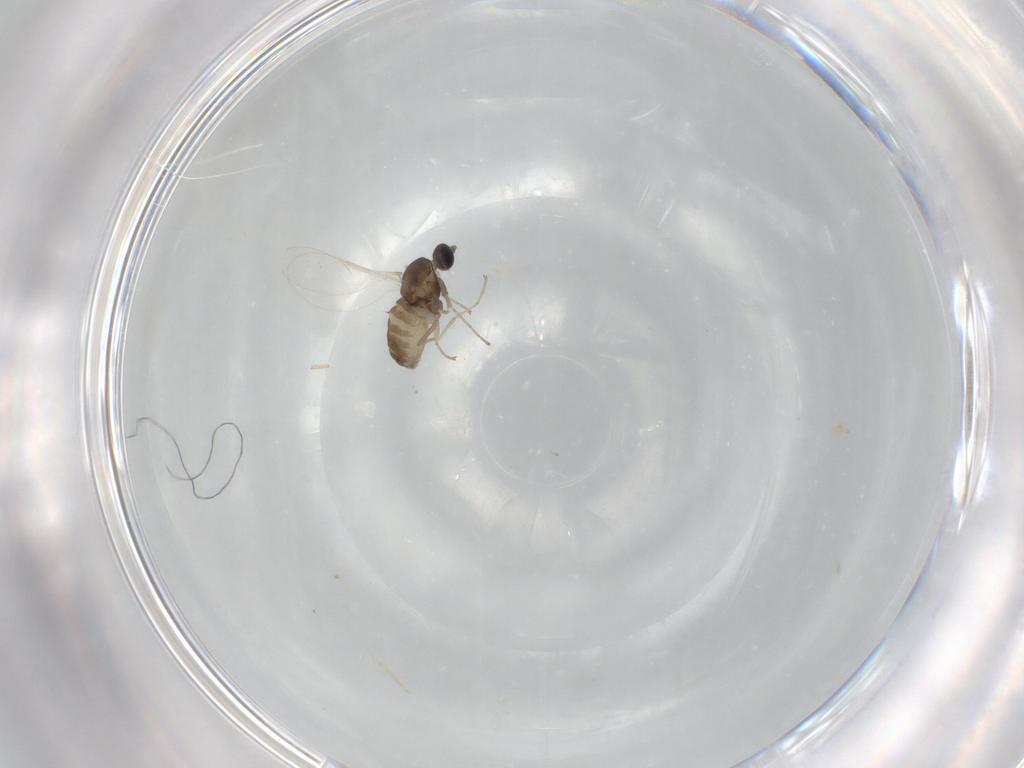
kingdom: Animalia
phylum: Arthropoda
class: Insecta
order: Diptera
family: Cecidomyiidae
